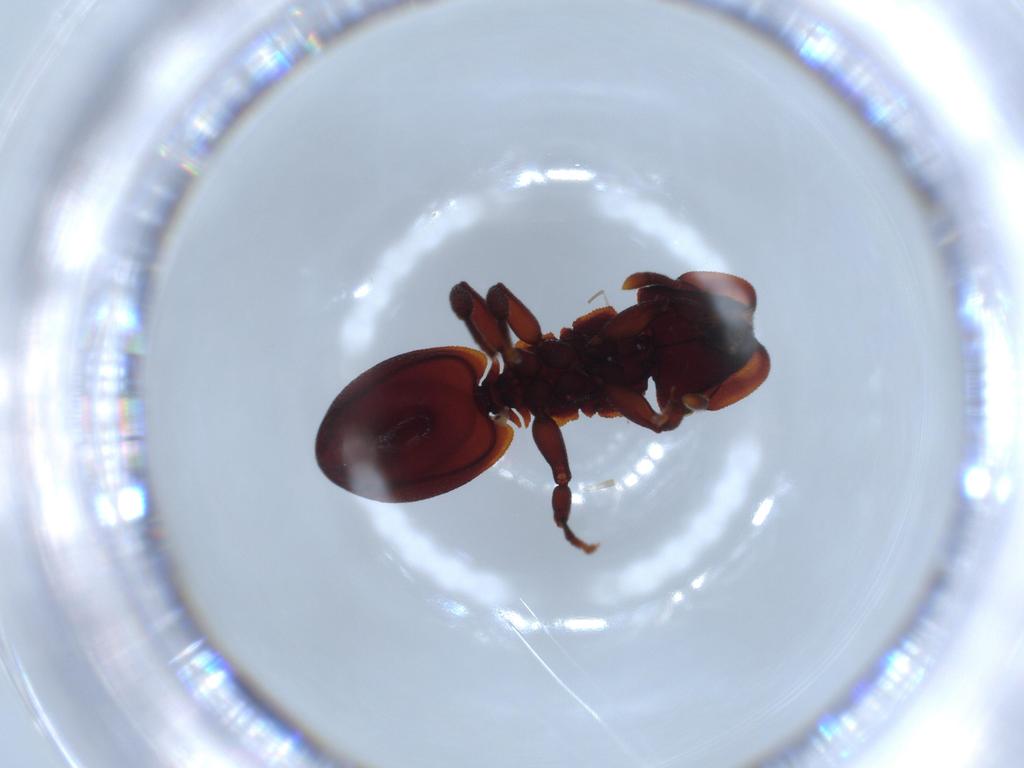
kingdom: Animalia
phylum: Arthropoda
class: Insecta
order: Hymenoptera
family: Formicidae
